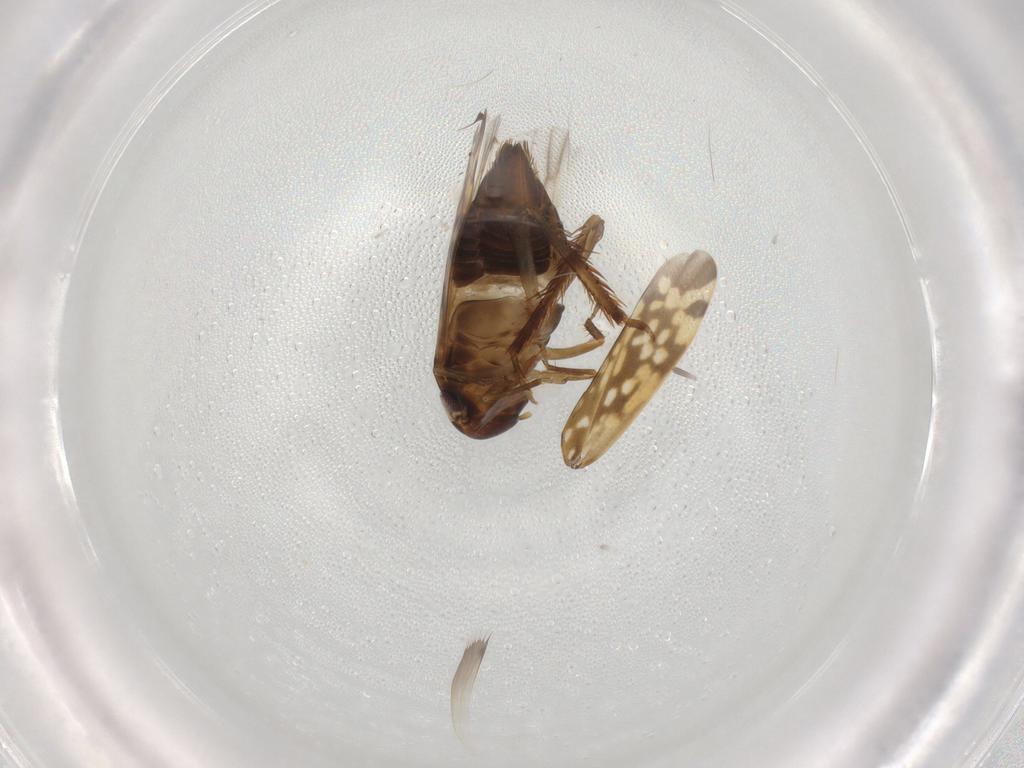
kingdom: Animalia
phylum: Arthropoda
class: Insecta
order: Hemiptera
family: Cicadellidae
